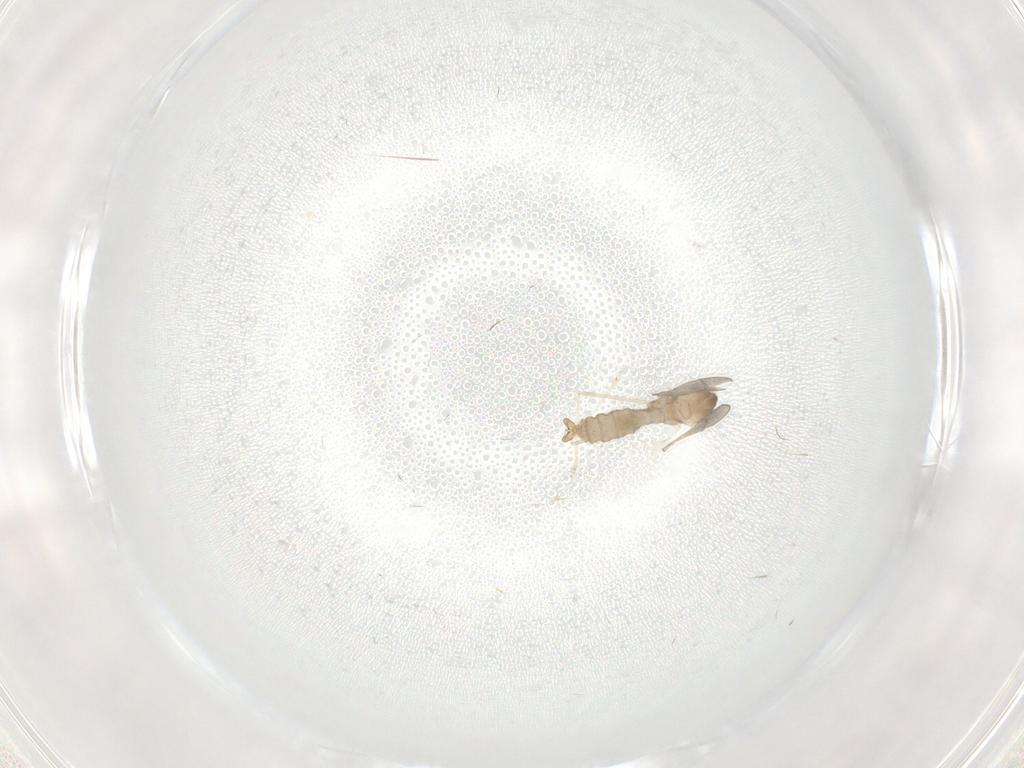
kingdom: Animalia
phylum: Arthropoda
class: Insecta
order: Diptera
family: Cecidomyiidae
